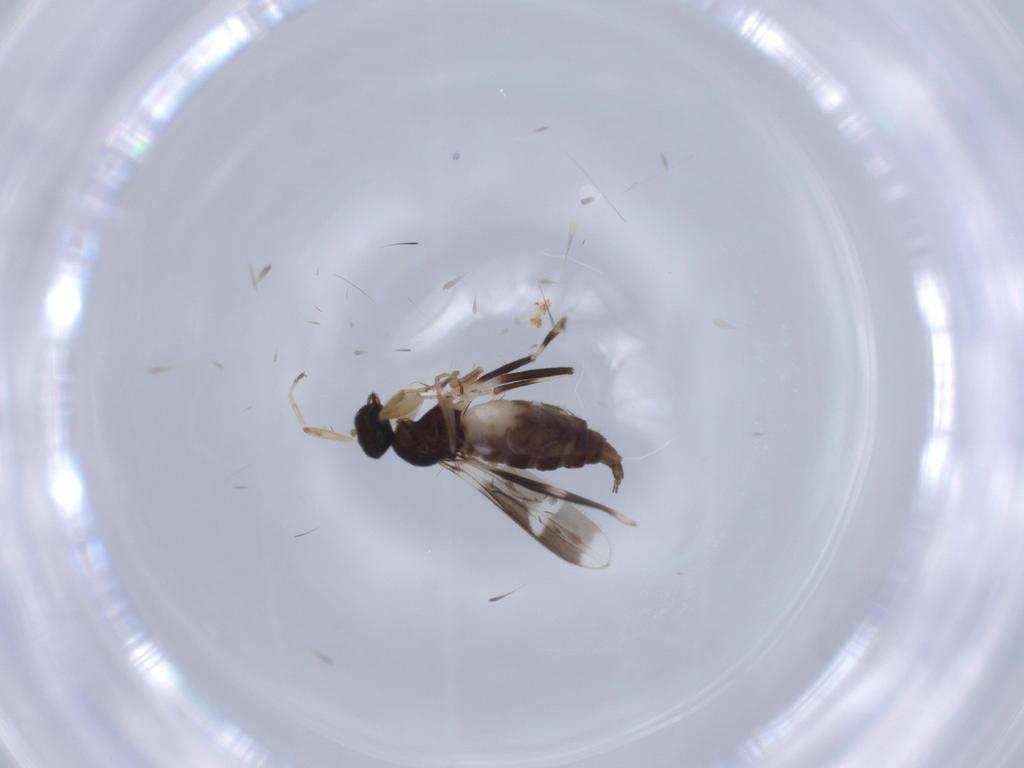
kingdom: Animalia
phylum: Arthropoda
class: Insecta
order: Diptera
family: Hybotidae
